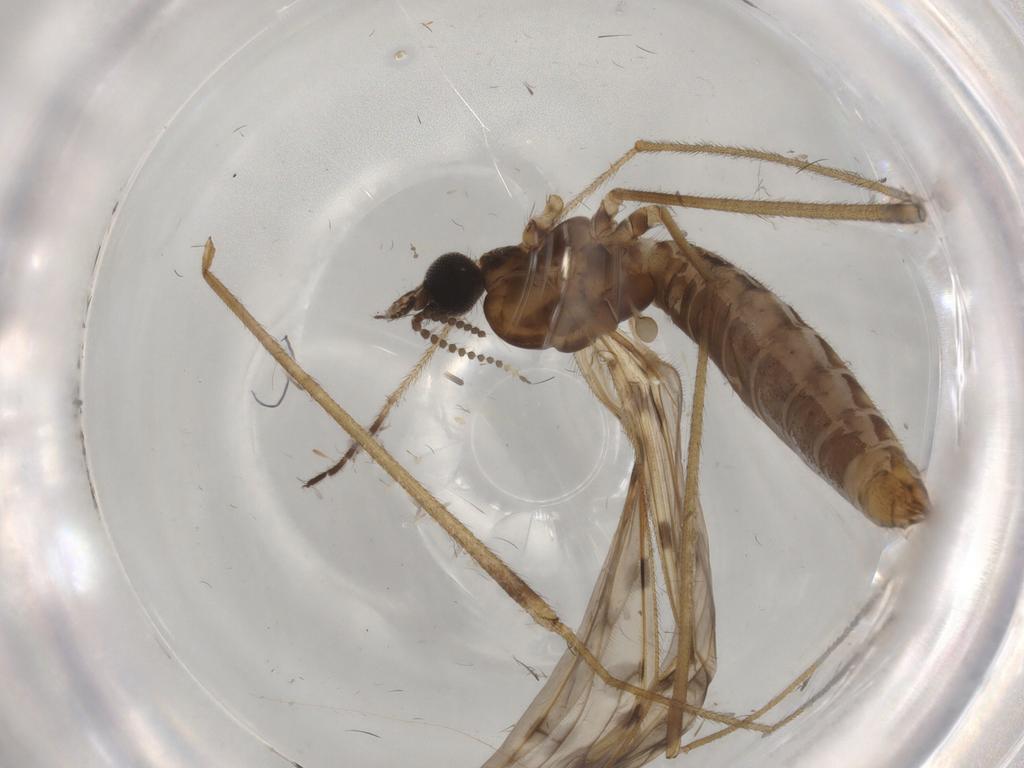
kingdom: Animalia
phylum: Arthropoda
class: Insecta
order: Diptera
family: Limoniidae
